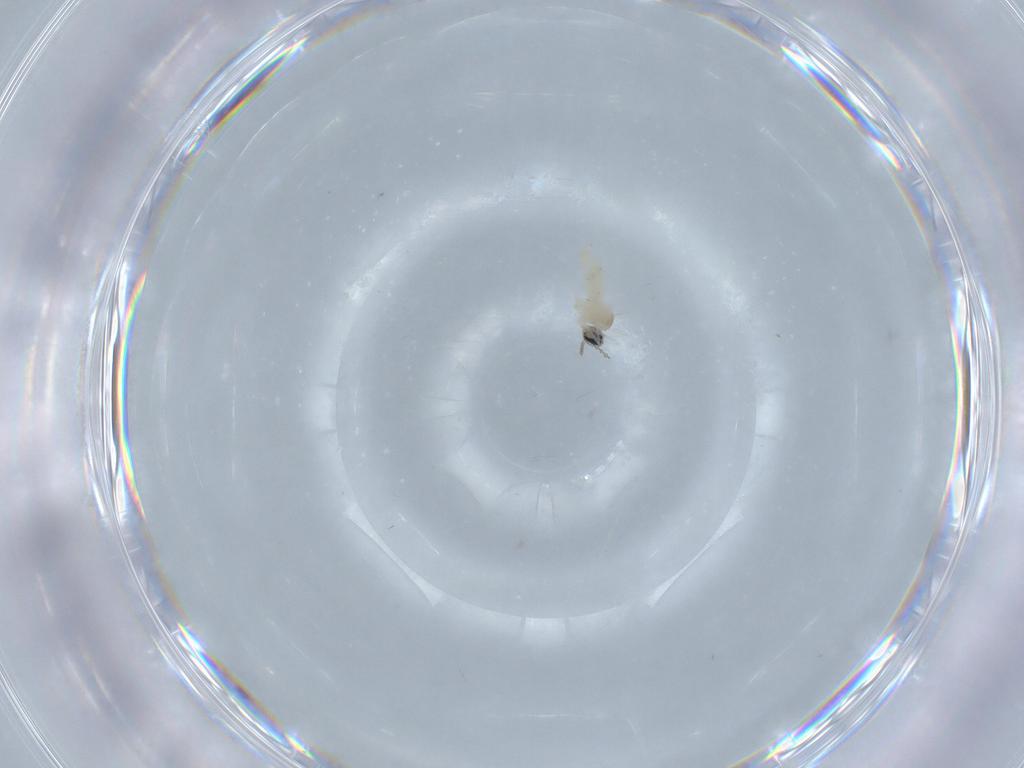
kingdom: Animalia
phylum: Arthropoda
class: Insecta
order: Diptera
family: Cecidomyiidae
